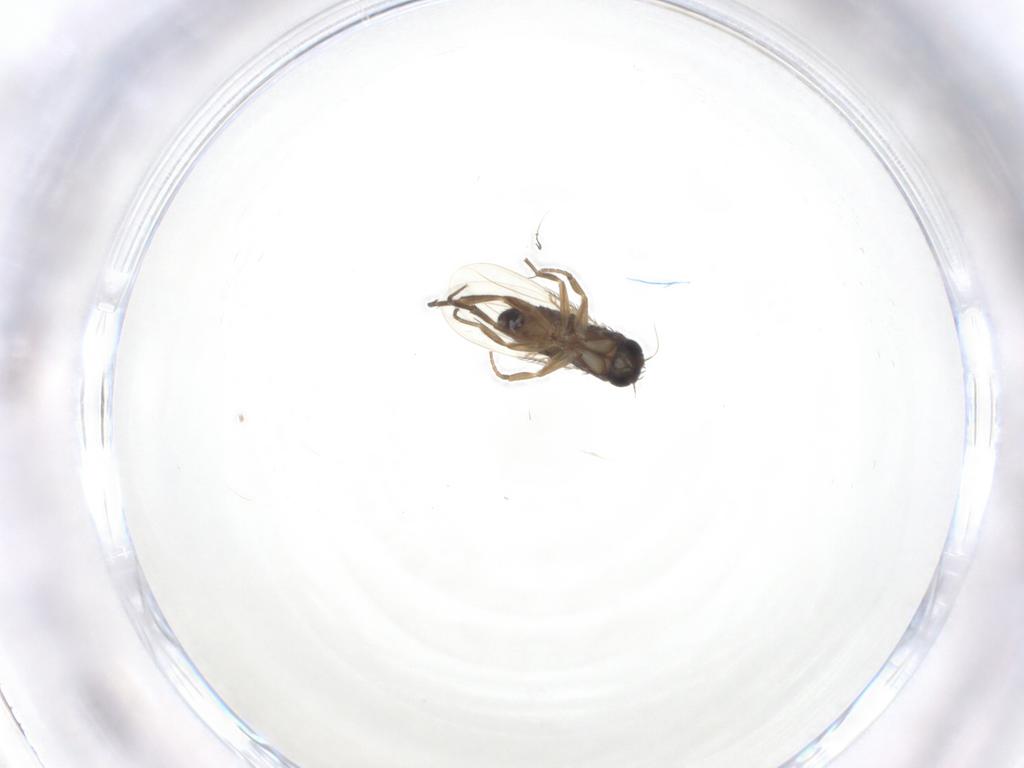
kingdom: Animalia
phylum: Arthropoda
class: Insecta
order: Diptera
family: Phoridae
